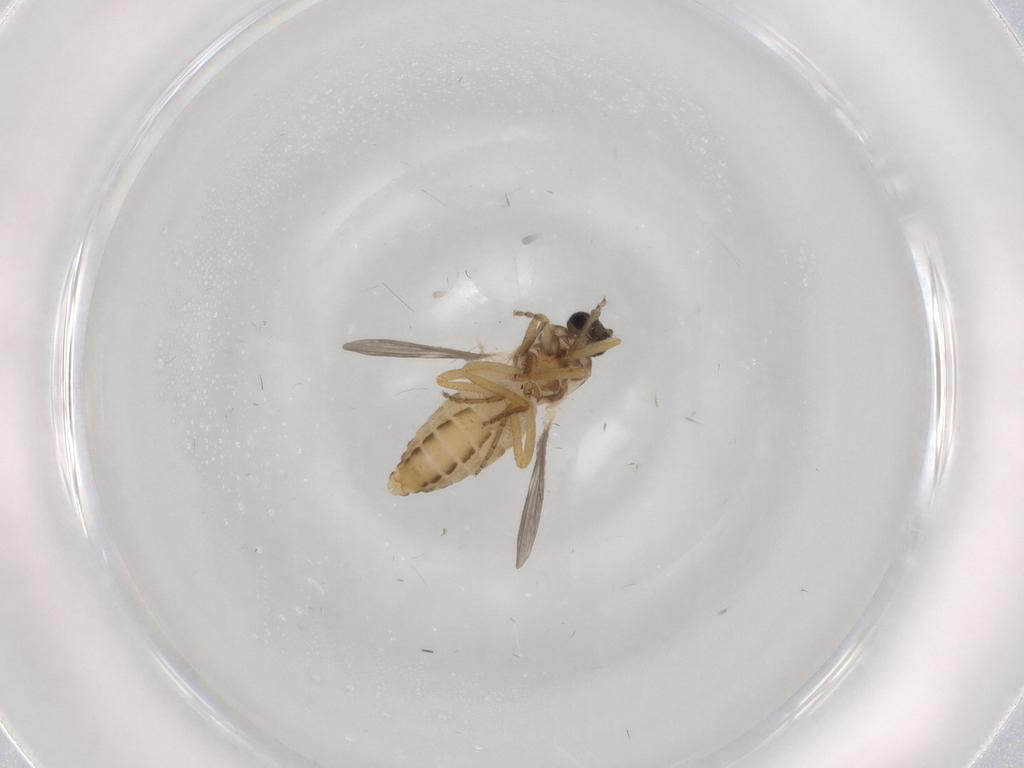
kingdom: Animalia
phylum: Arthropoda
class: Insecta
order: Diptera
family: Ceratopogonidae
